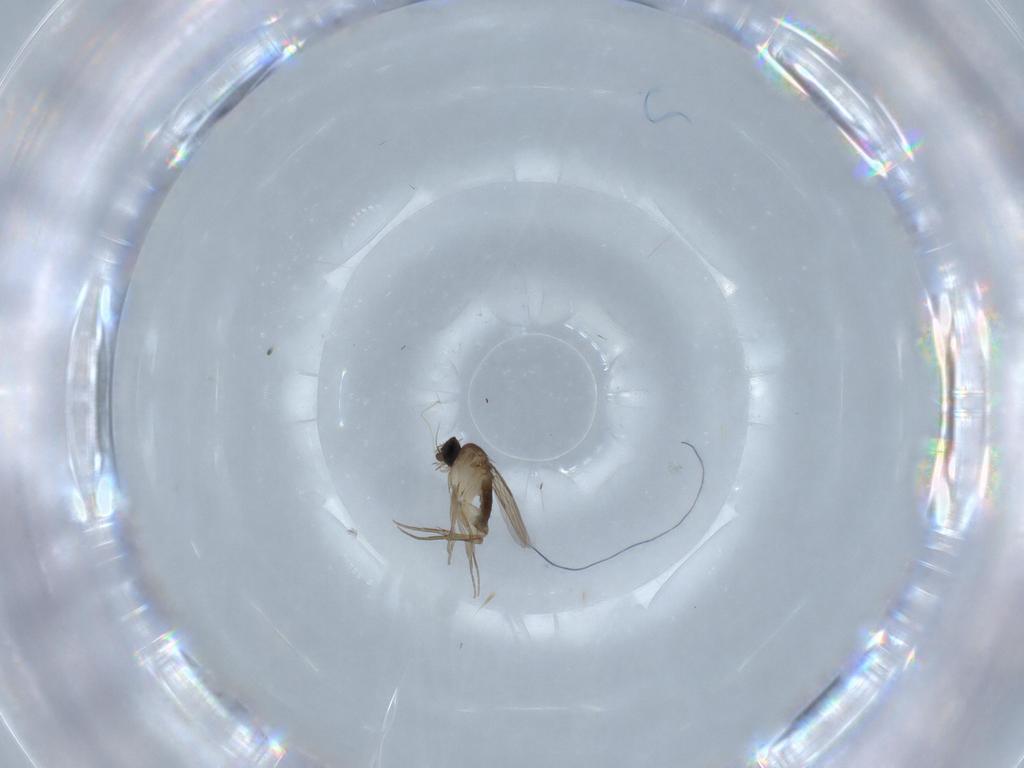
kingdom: Animalia
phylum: Arthropoda
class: Insecta
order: Diptera
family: Phoridae
